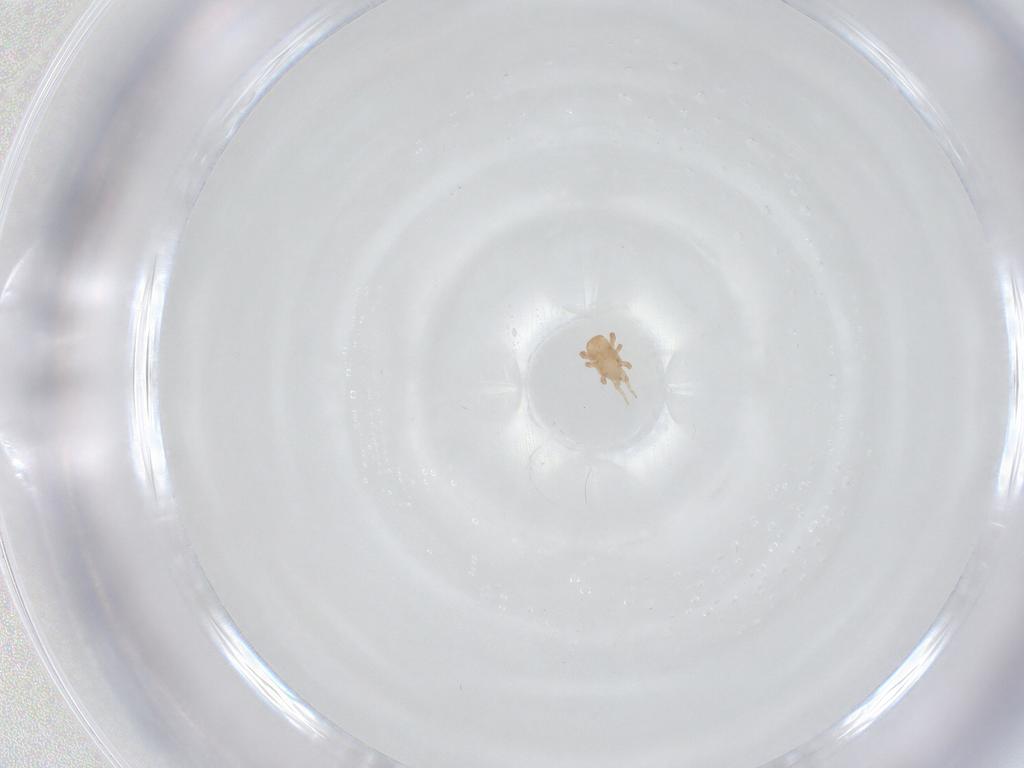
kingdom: Animalia
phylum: Arthropoda
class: Arachnida
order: Mesostigmata
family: Halolaelapidae
